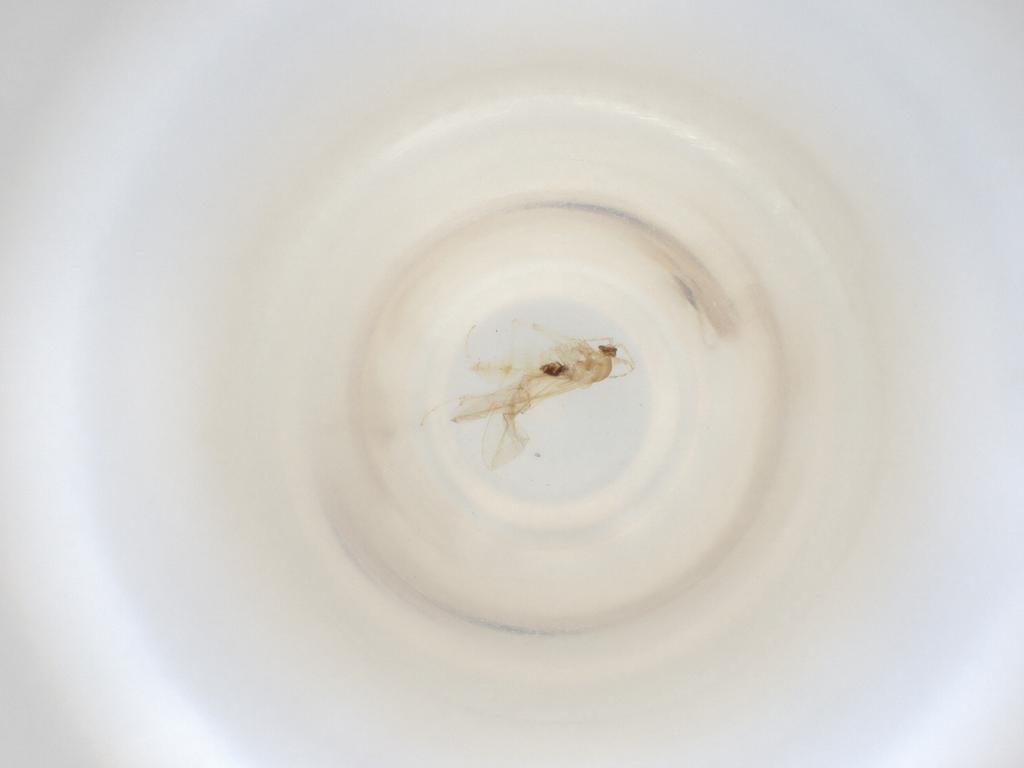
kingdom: Animalia
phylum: Arthropoda
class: Insecta
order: Diptera
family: Cecidomyiidae
